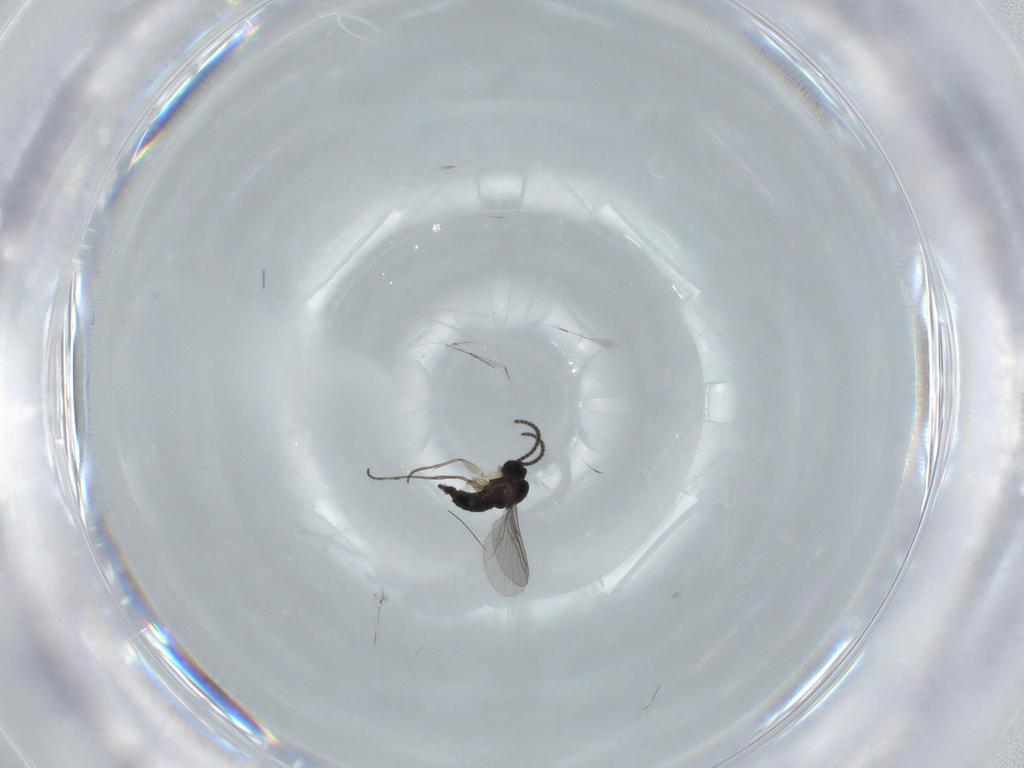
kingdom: Animalia
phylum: Arthropoda
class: Insecta
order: Diptera
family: Sciaridae
